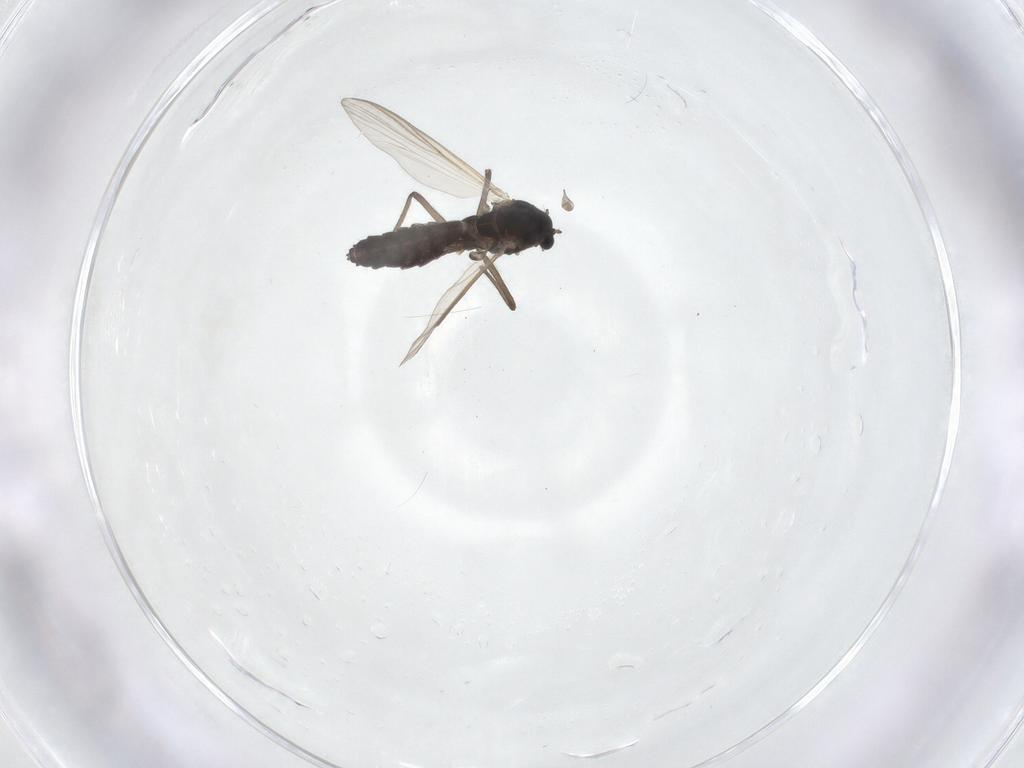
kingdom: Animalia
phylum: Arthropoda
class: Insecta
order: Diptera
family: Chironomidae
